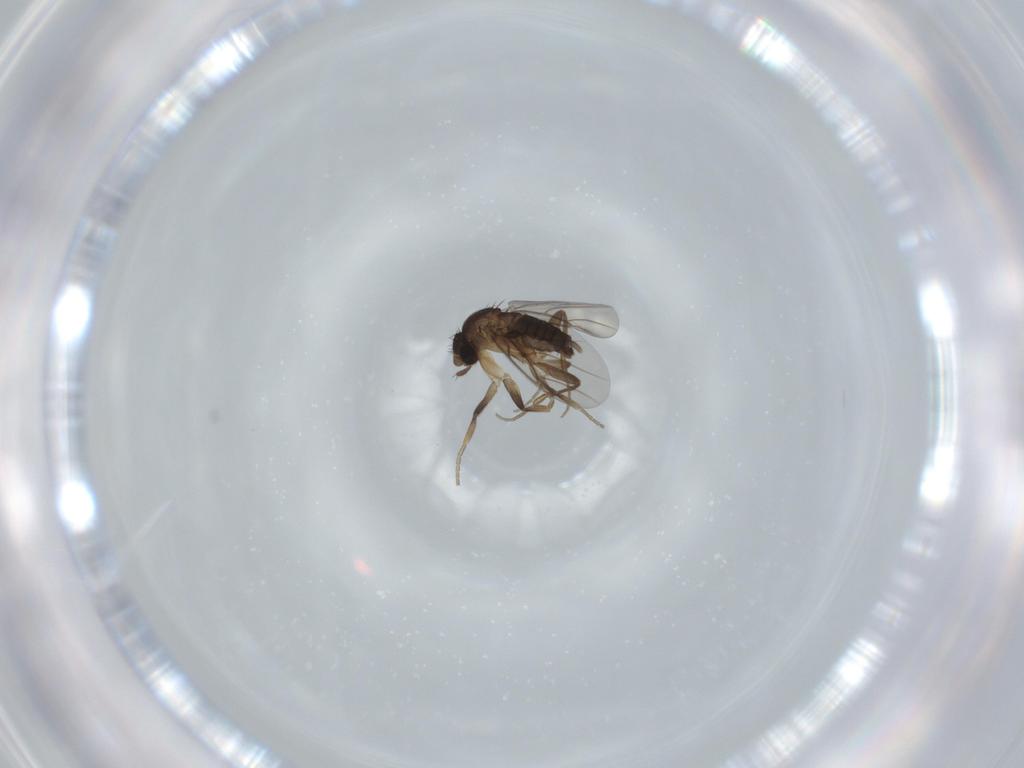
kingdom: Animalia
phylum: Arthropoda
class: Insecta
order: Diptera
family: Phoridae
